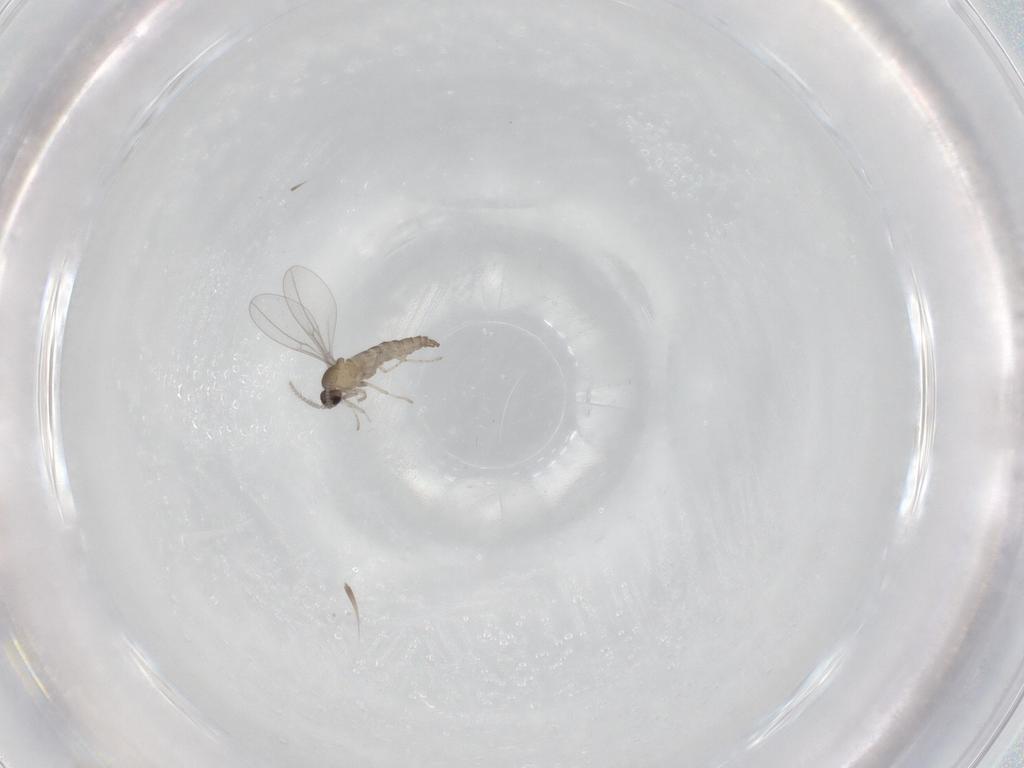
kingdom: Animalia
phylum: Arthropoda
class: Insecta
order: Diptera
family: Cecidomyiidae
